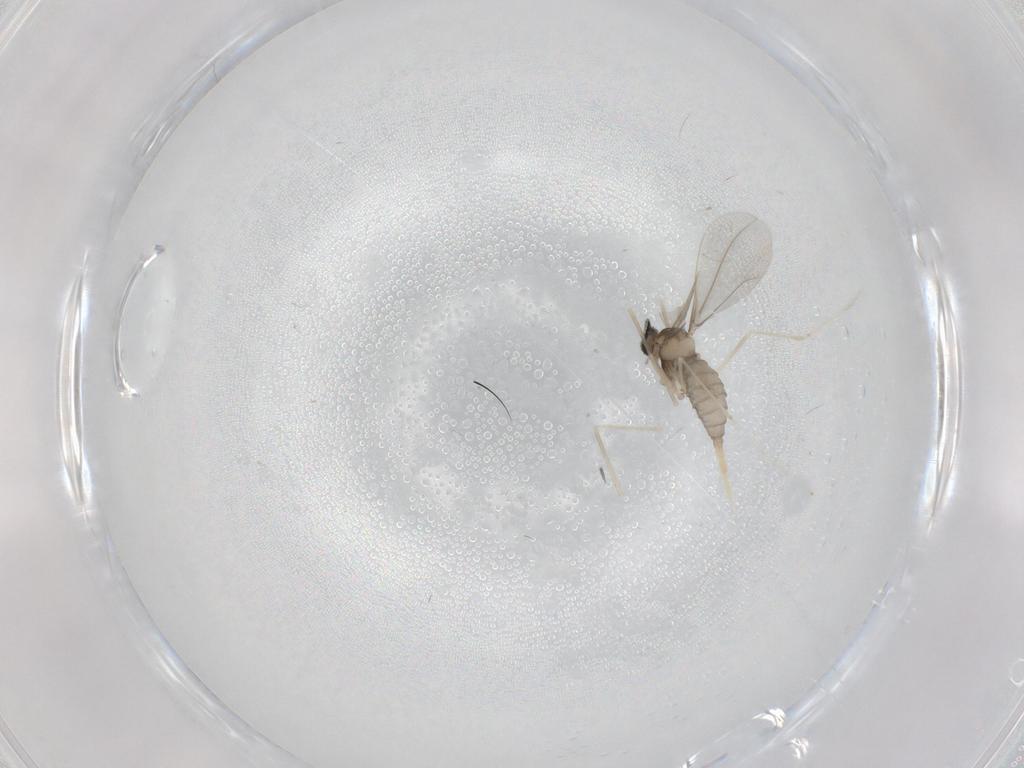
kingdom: Animalia
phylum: Arthropoda
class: Insecta
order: Diptera
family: Cecidomyiidae
